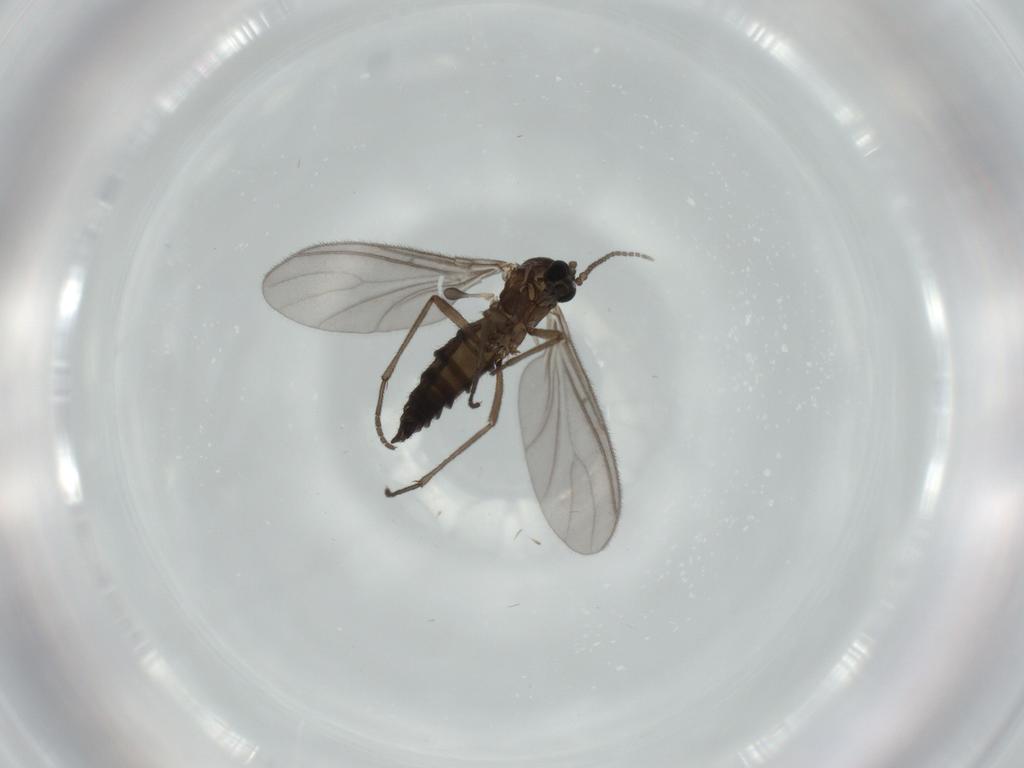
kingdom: Animalia
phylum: Arthropoda
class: Insecta
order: Diptera
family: Sciaridae
